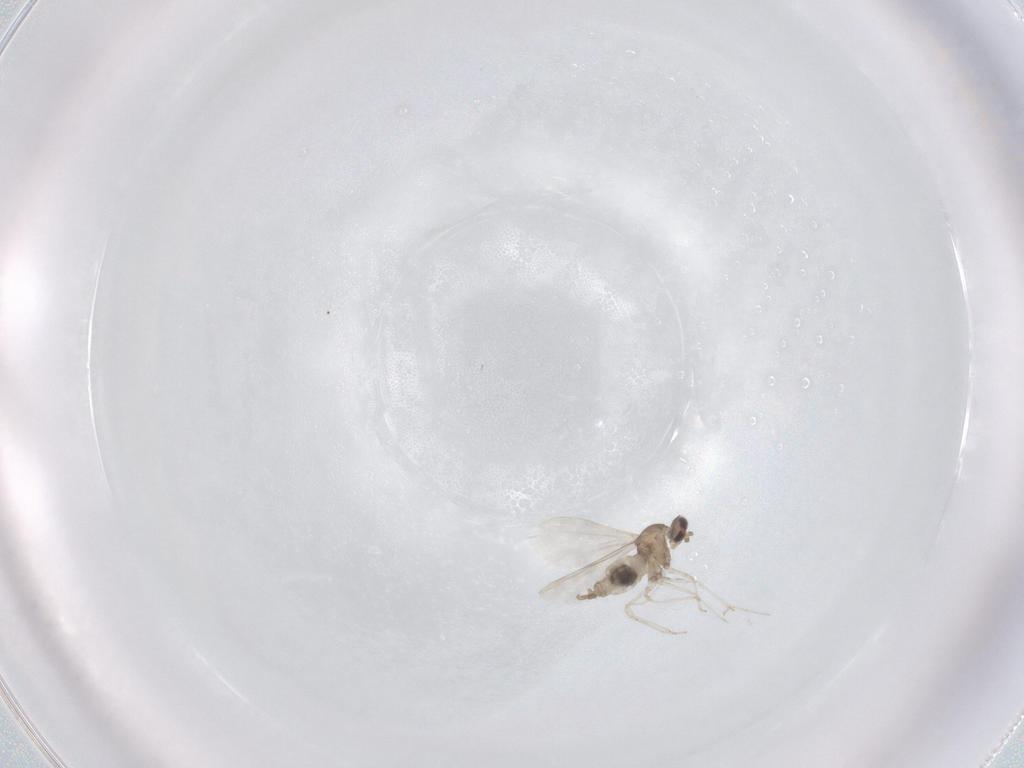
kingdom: Animalia
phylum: Arthropoda
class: Insecta
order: Diptera
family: Cecidomyiidae
